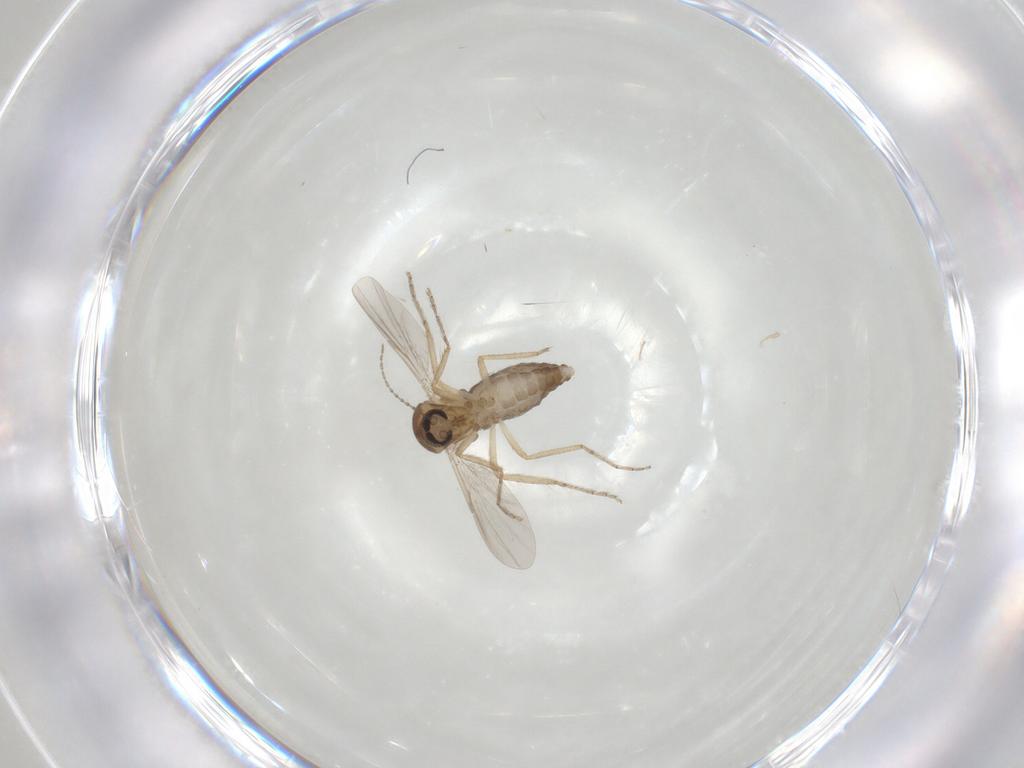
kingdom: Animalia
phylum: Arthropoda
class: Insecta
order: Diptera
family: Ceratopogonidae
